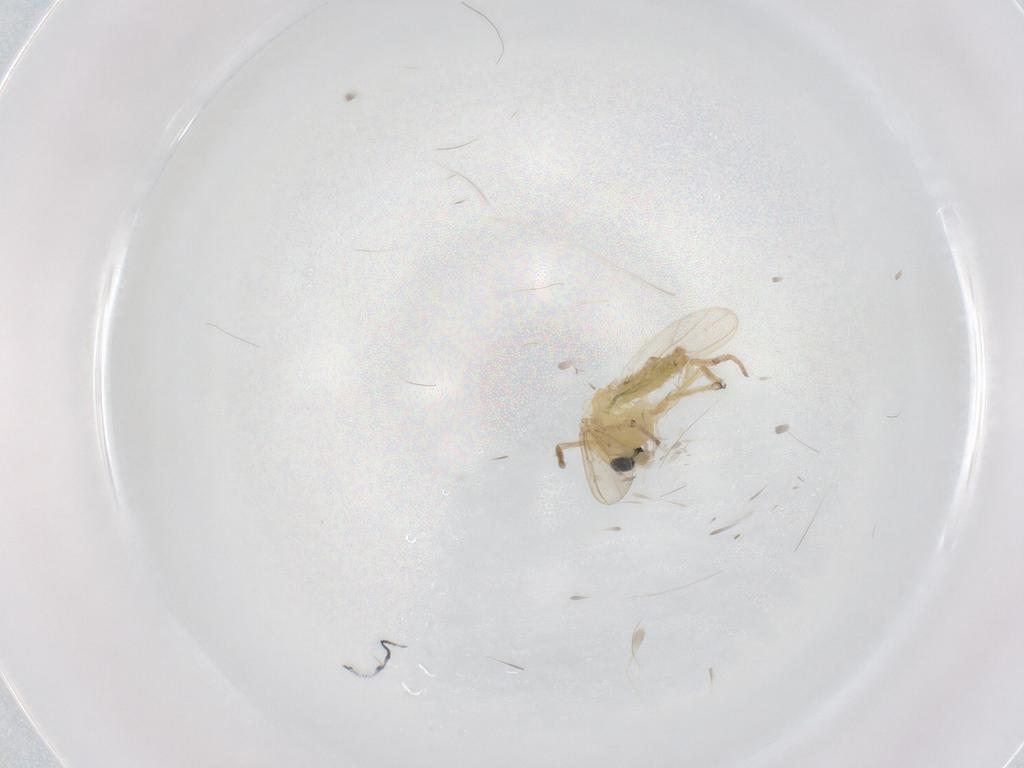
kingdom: Animalia
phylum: Arthropoda
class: Insecta
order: Diptera
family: Chironomidae
